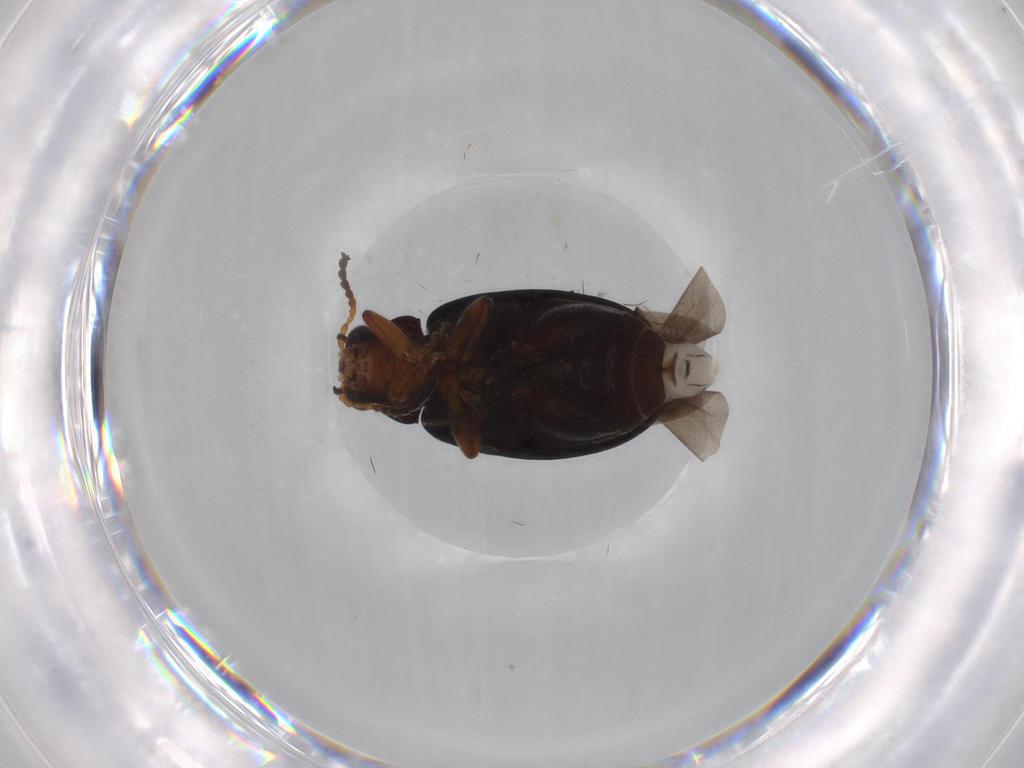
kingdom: Animalia
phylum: Arthropoda
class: Insecta
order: Coleoptera
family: Chrysomelidae
